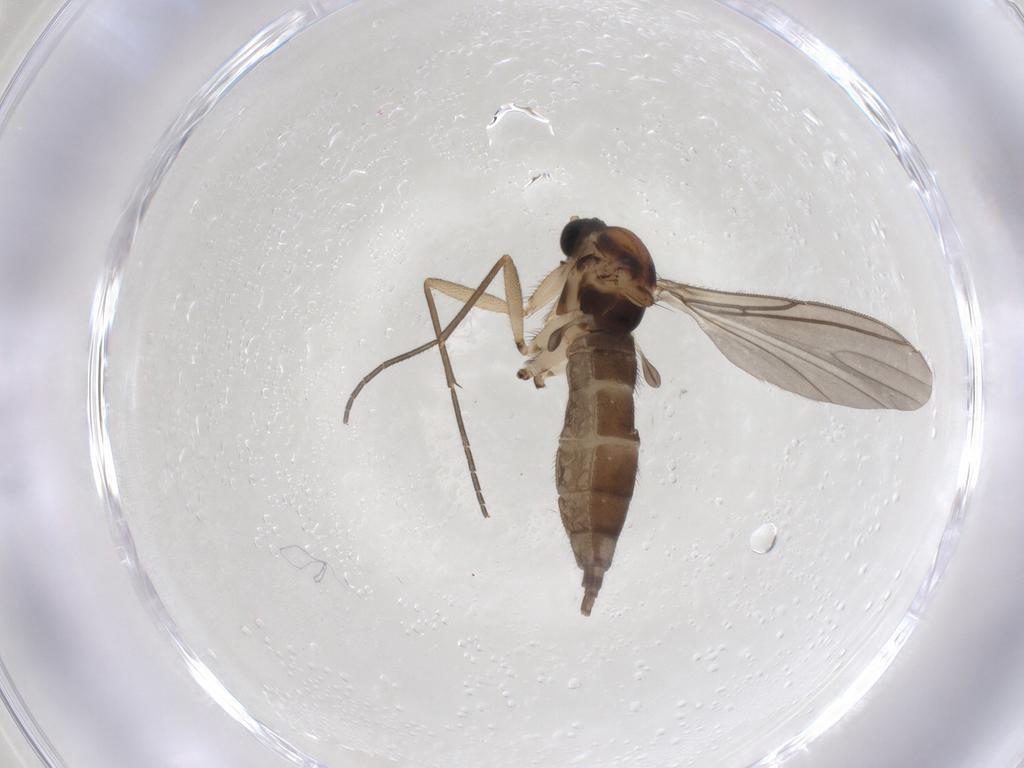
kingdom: Animalia
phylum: Arthropoda
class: Insecta
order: Diptera
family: Sciaridae
